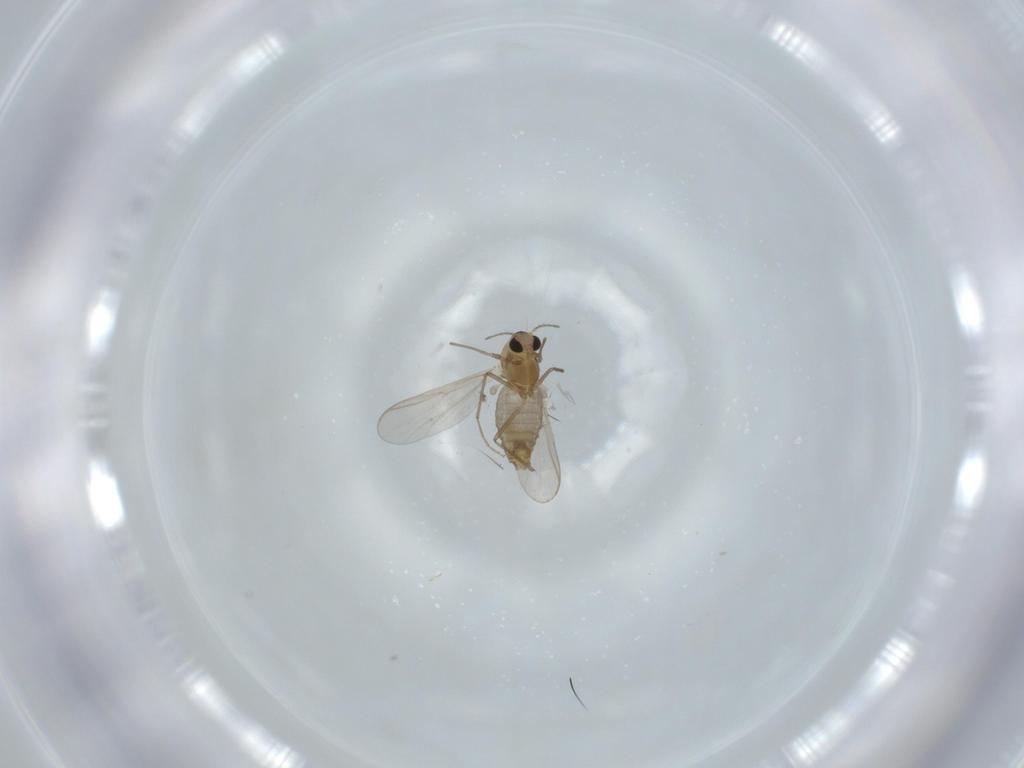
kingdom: Animalia
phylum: Arthropoda
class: Insecta
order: Diptera
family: Chironomidae
